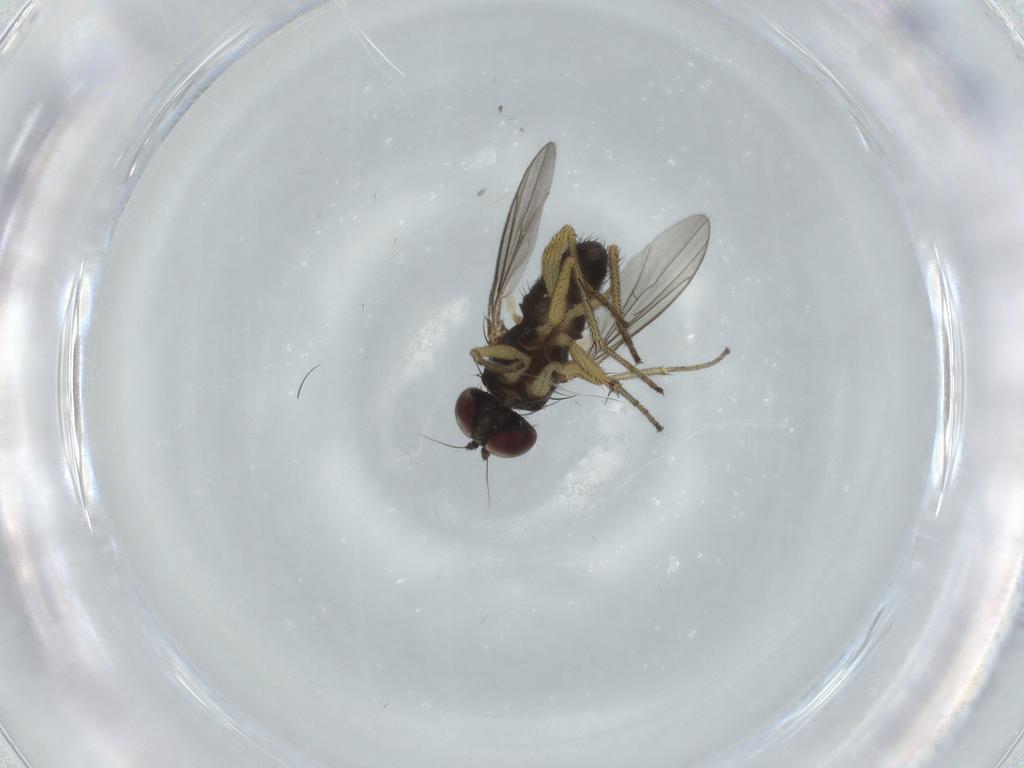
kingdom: Animalia
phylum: Arthropoda
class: Insecta
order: Diptera
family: Dolichopodidae
